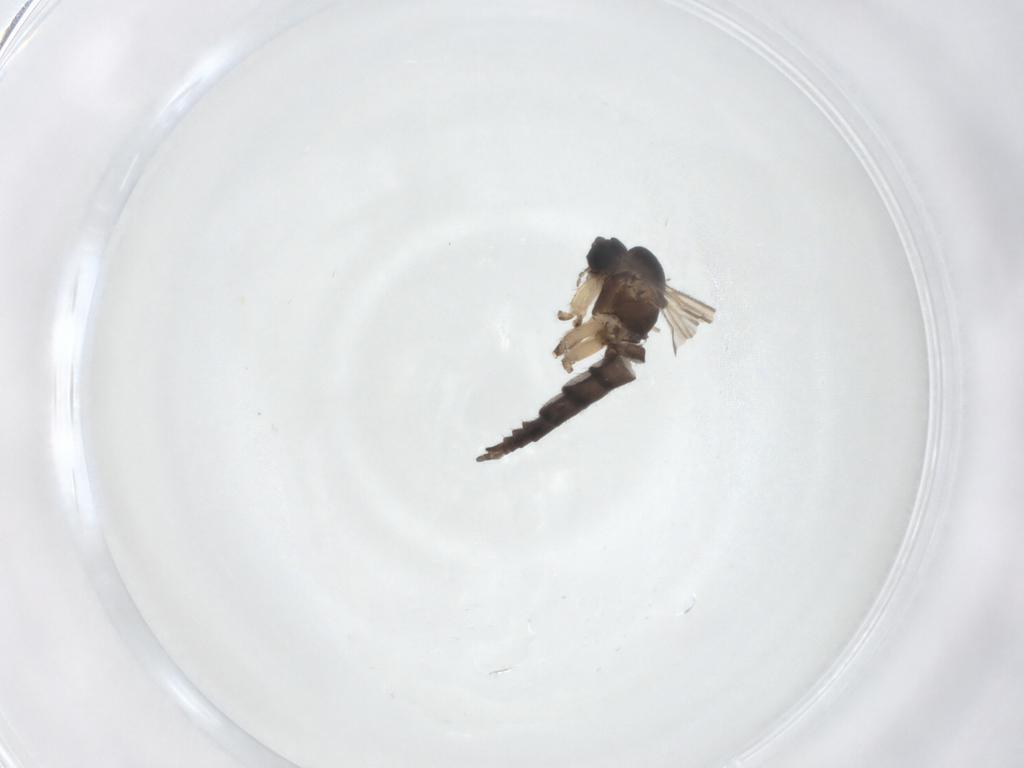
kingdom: Animalia
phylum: Arthropoda
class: Insecta
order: Diptera
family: Sciaridae
